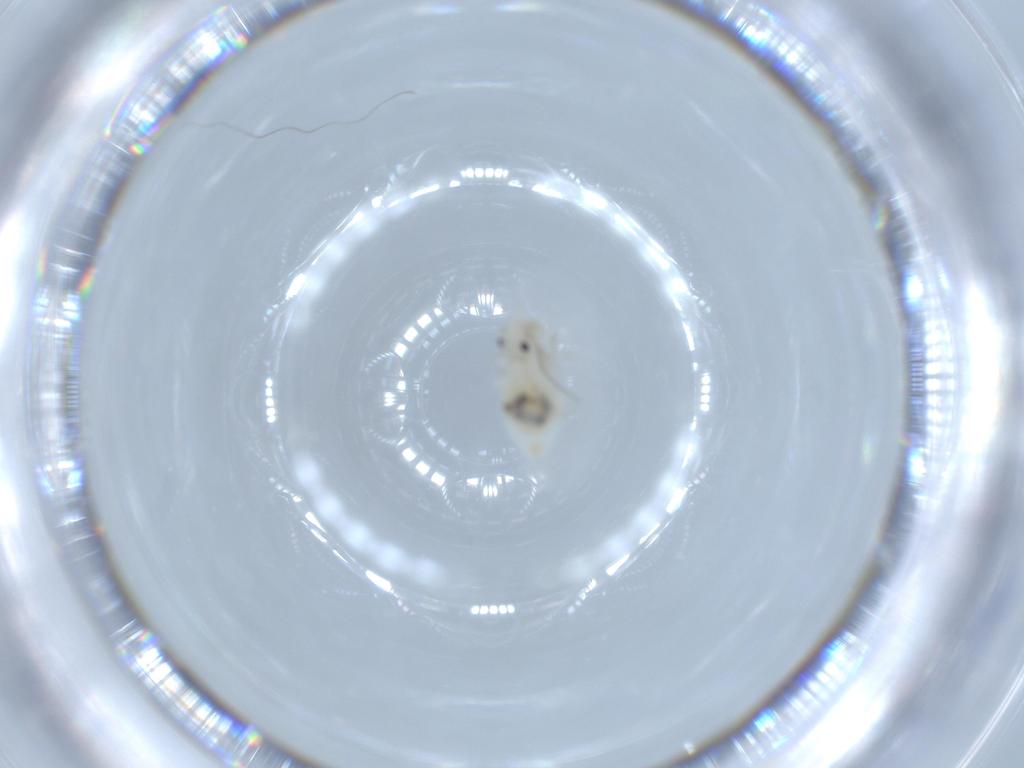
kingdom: Animalia
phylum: Arthropoda
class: Insecta
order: Psocodea
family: Caeciliusidae
